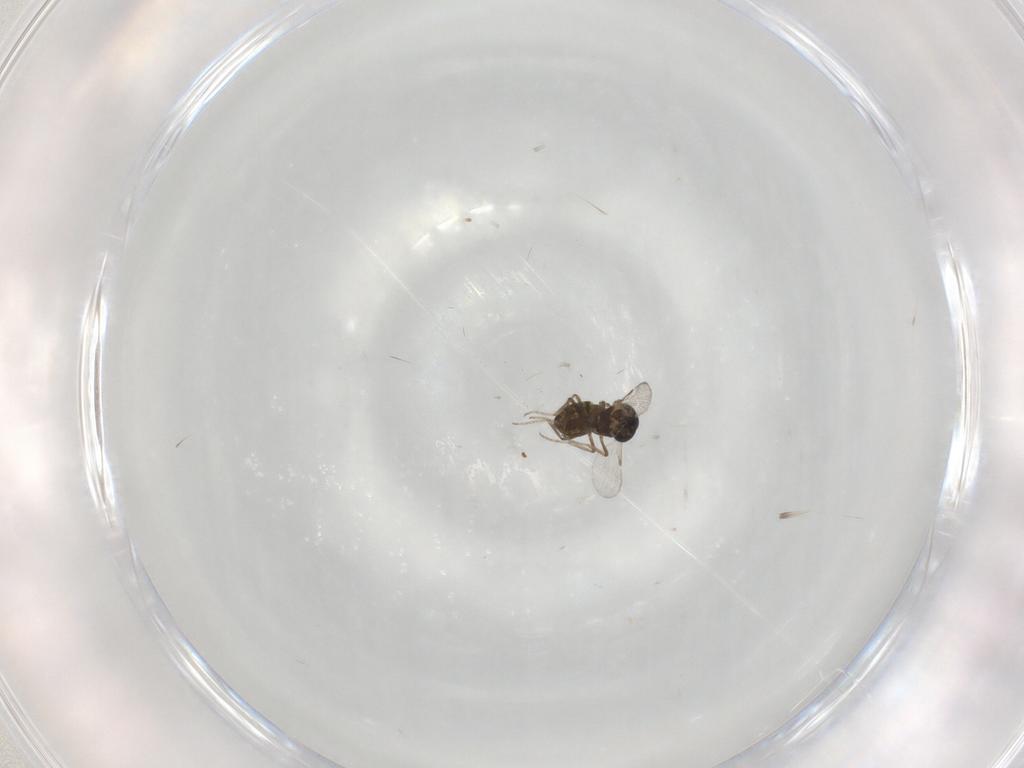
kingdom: Animalia
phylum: Arthropoda
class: Insecta
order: Diptera
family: Ceratopogonidae
